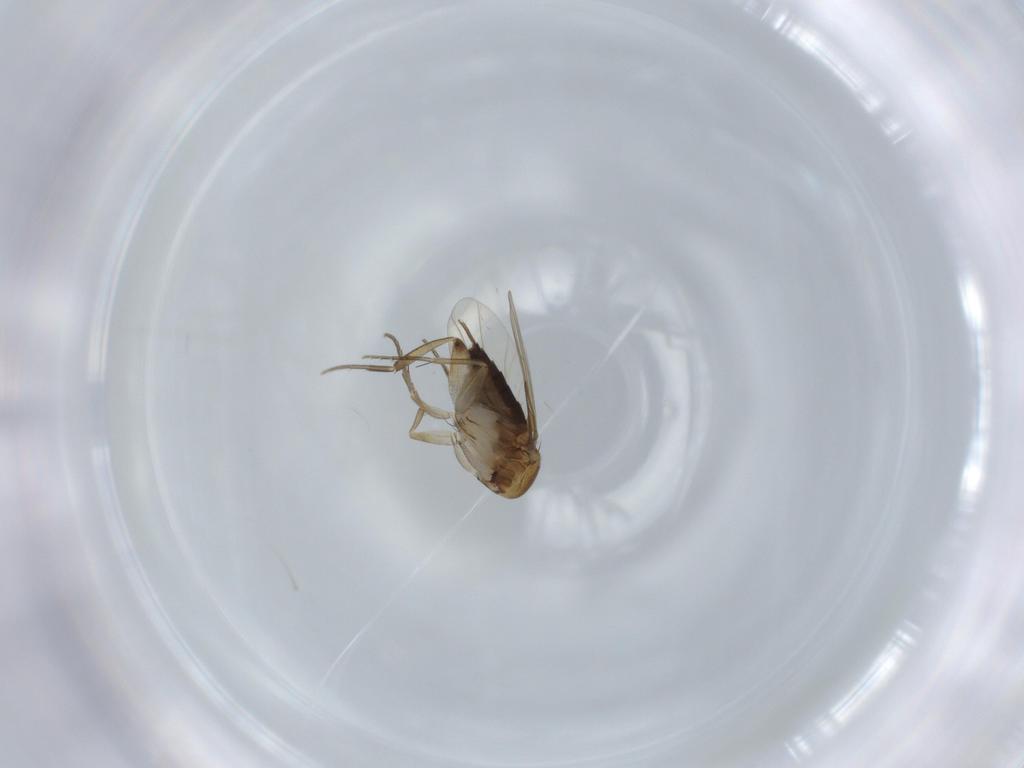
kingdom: Animalia
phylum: Arthropoda
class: Insecta
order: Diptera
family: Phoridae
